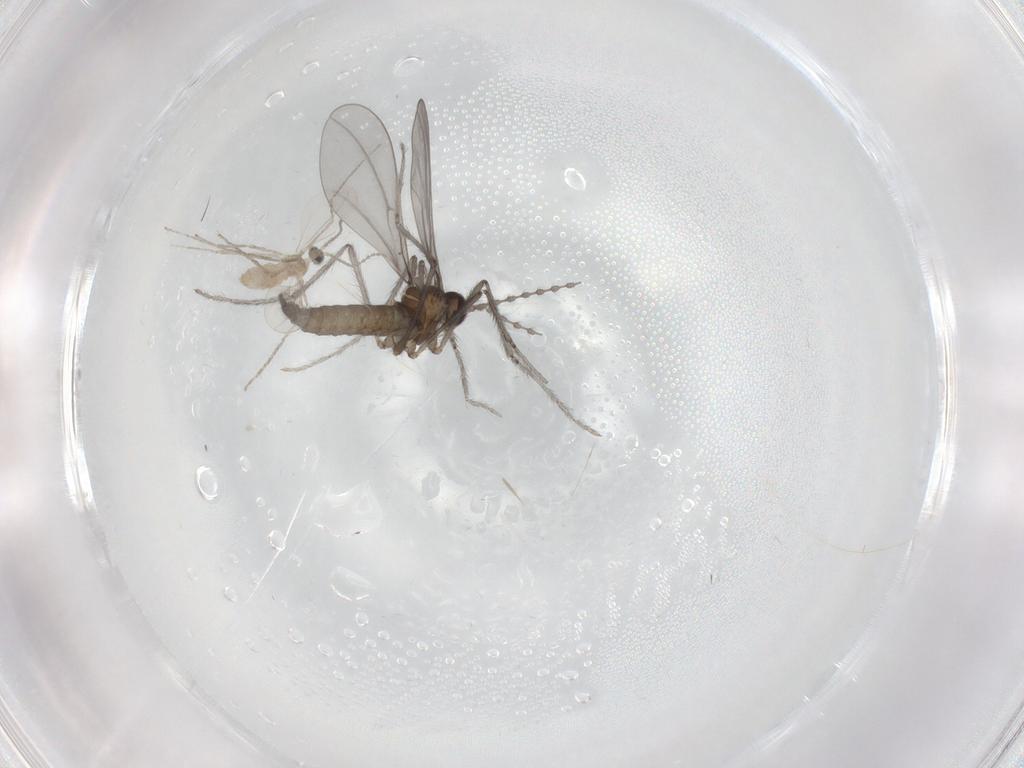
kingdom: Animalia
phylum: Arthropoda
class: Insecta
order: Diptera
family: Cecidomyiidae
